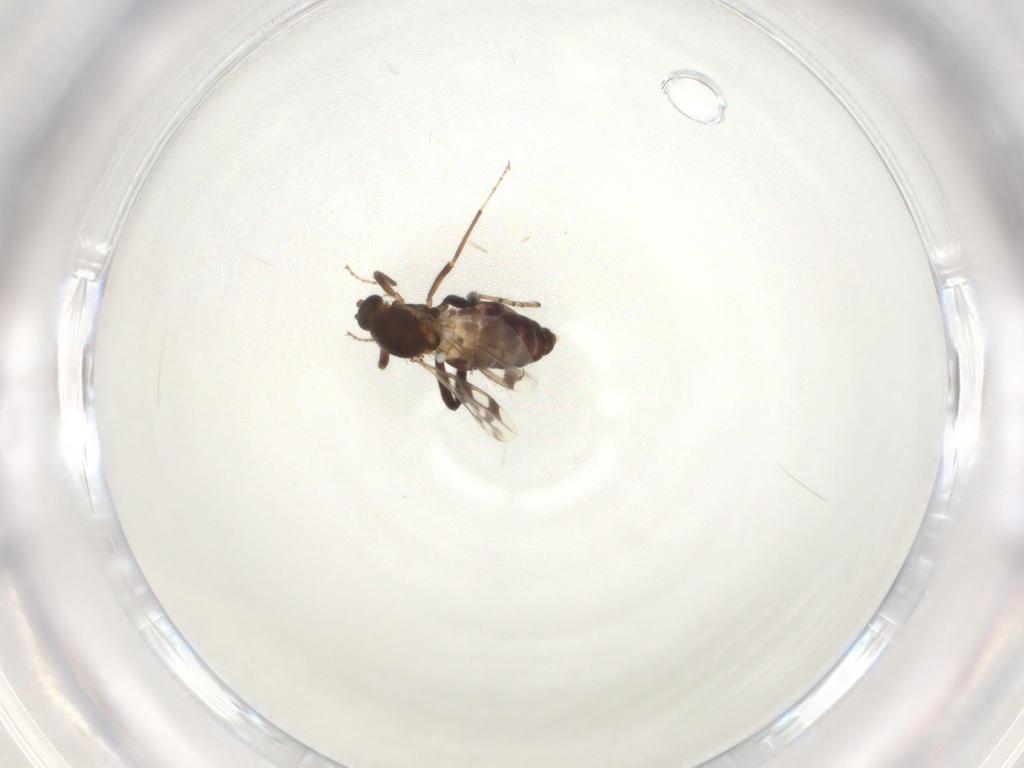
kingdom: Animalia
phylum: Arthropoda
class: Insecta
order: Diptera
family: Ceratopogonidae
